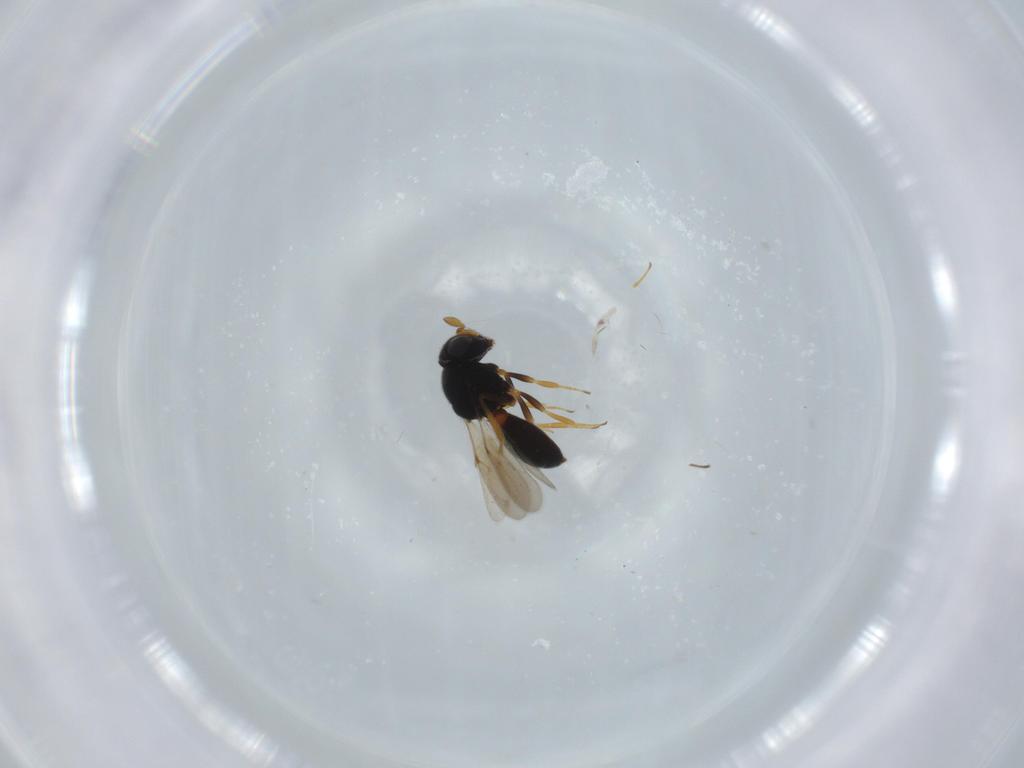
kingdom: Animalia
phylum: Arthropoda
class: Insecta
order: Hymenoptera
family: Scelionidae
